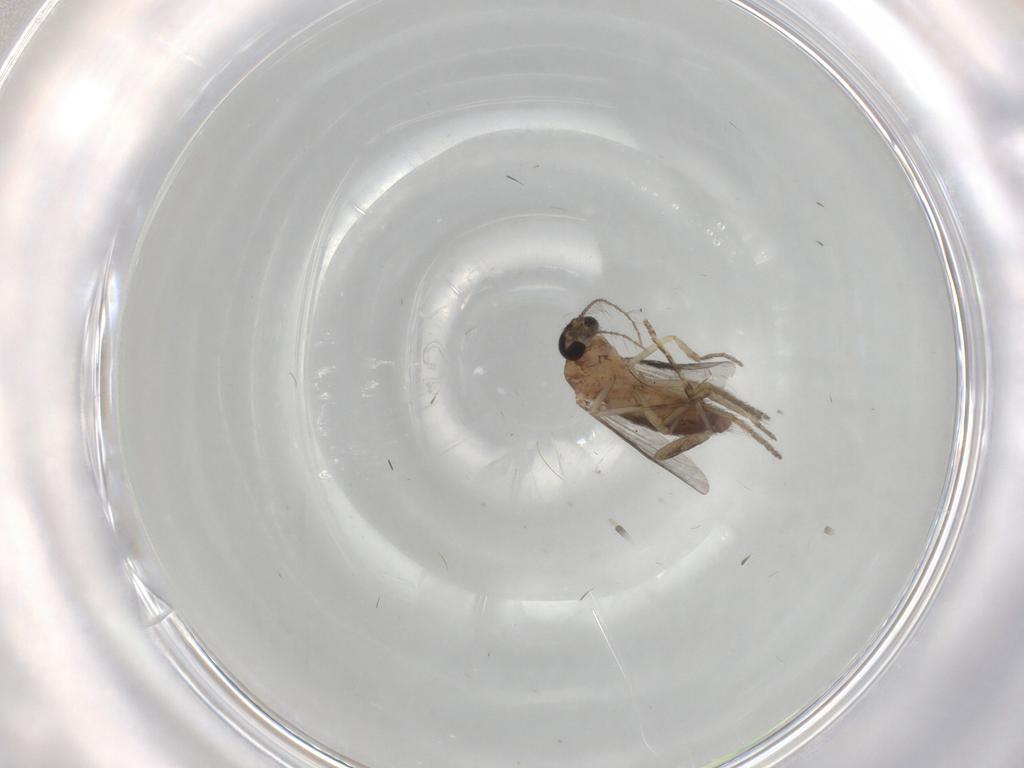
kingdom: Animalia
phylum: Arthropoda
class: Insecta
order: Diptera
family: Ceratopogonidae
